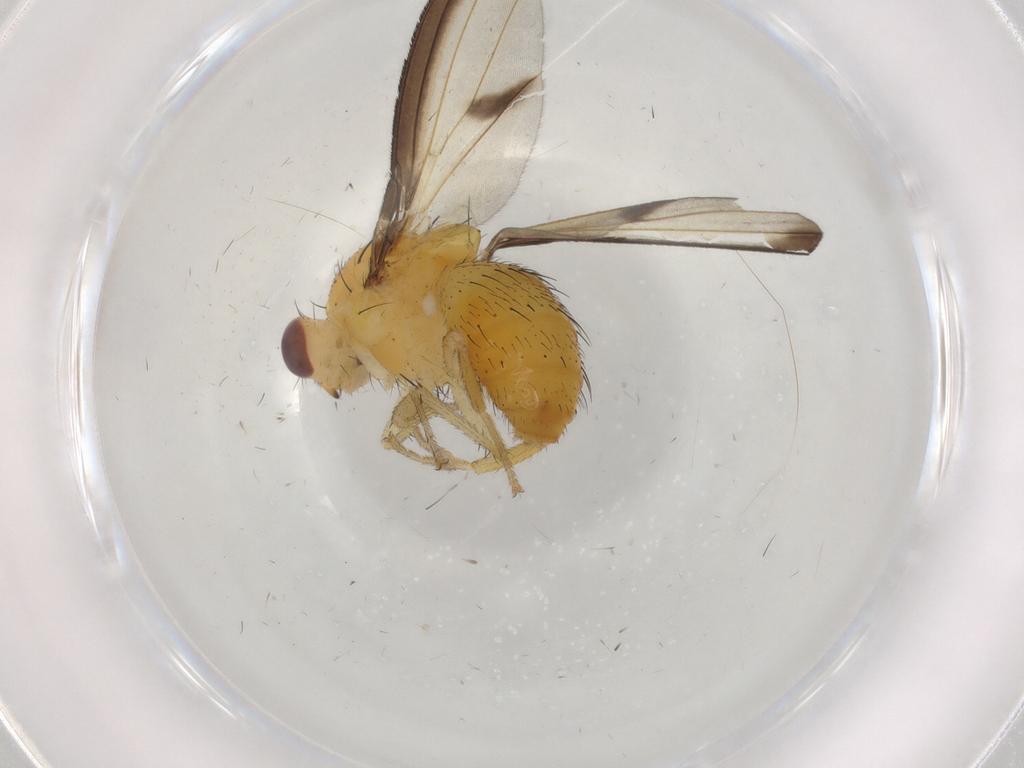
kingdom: Animalia
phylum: Arthropoda
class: Insecta
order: Diptera
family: Lauxaniidae
